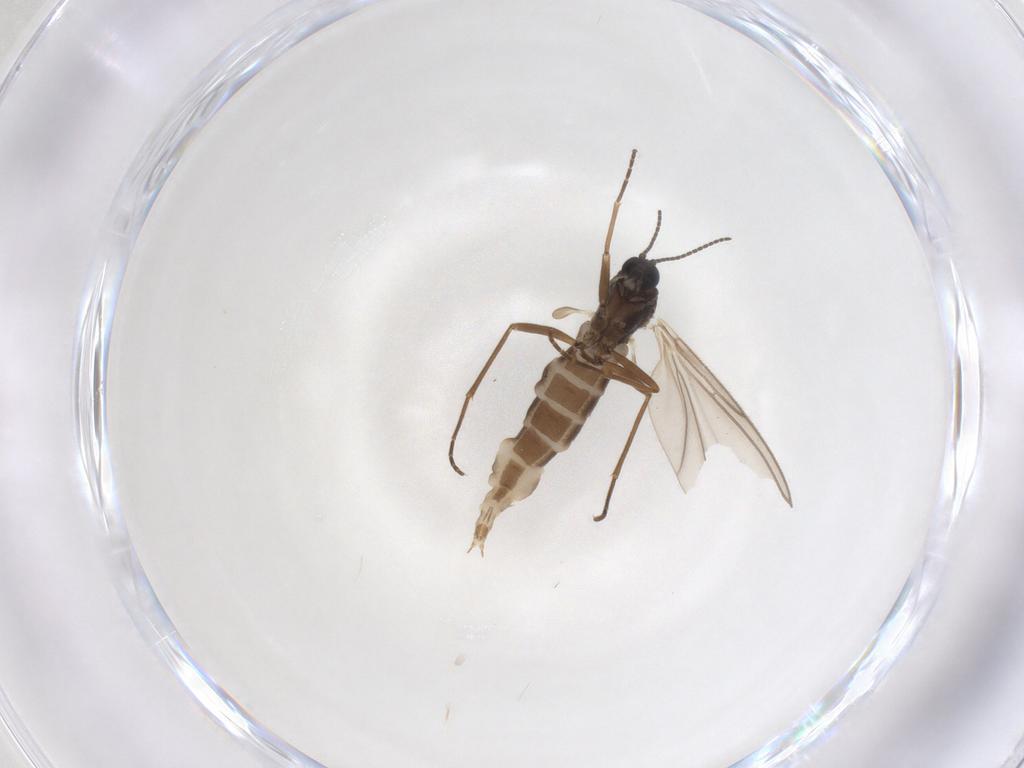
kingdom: Animalia
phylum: Arthropoda
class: Insecta
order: Diptera
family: Sciaridae
